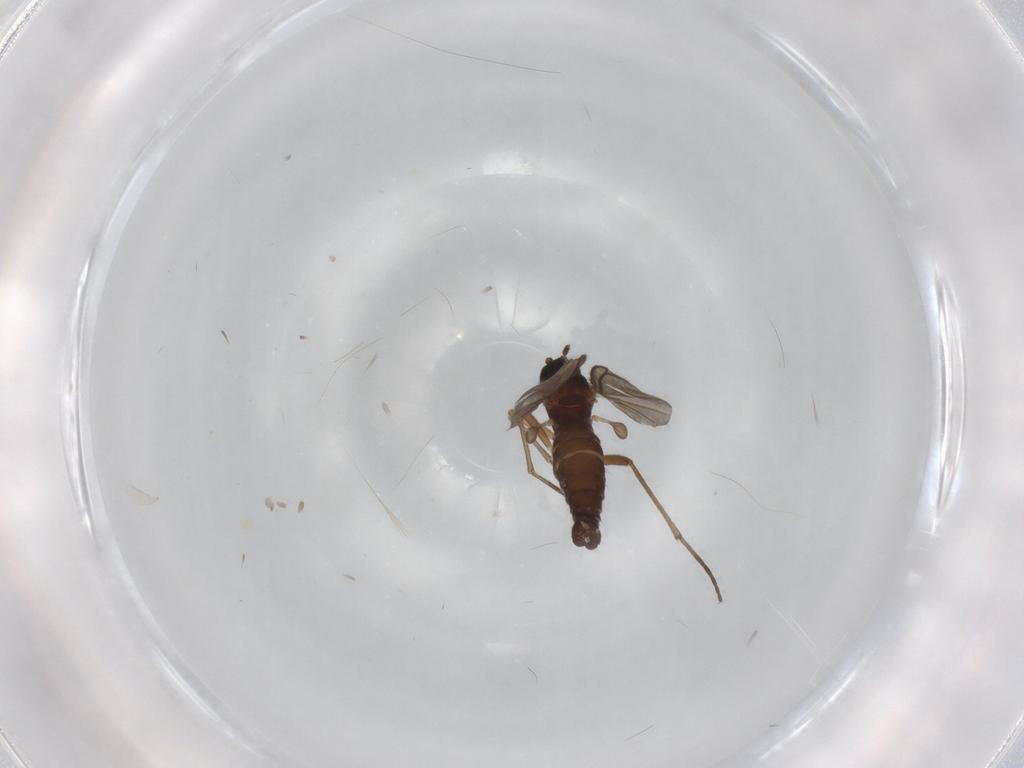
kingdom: Animalia
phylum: Arthropoda
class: Insecta
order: Diptera
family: Sciaridae
